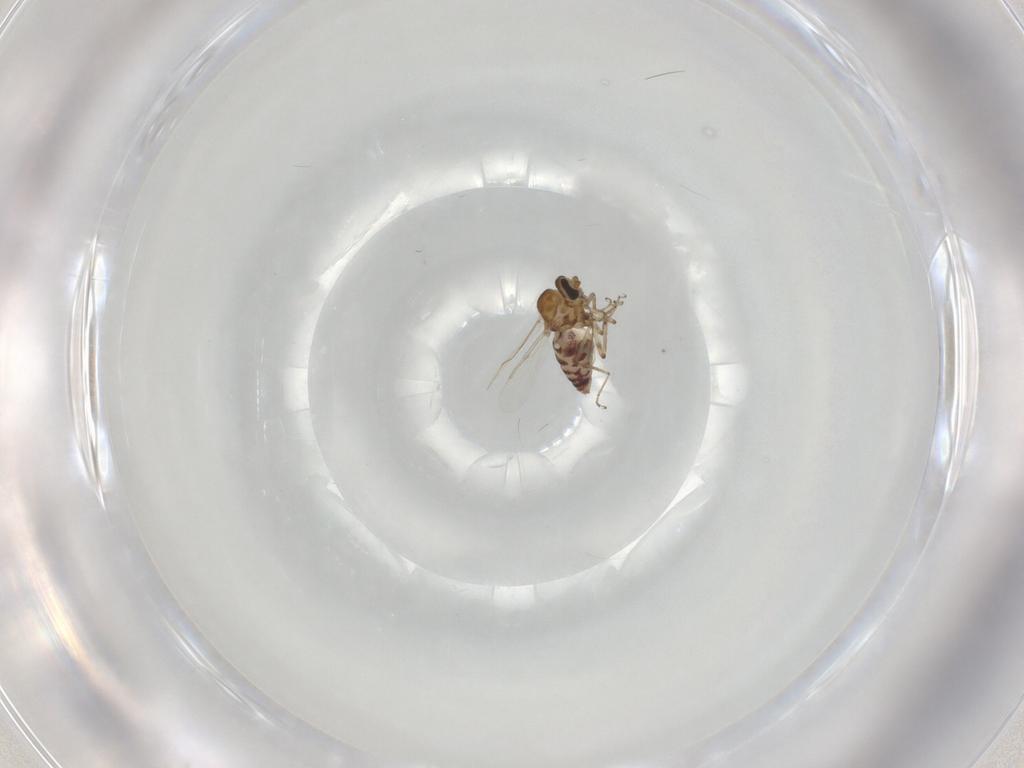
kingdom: Animalia
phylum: Arthropoda
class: Insecta
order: Diptera
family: Ceratopogonidae
